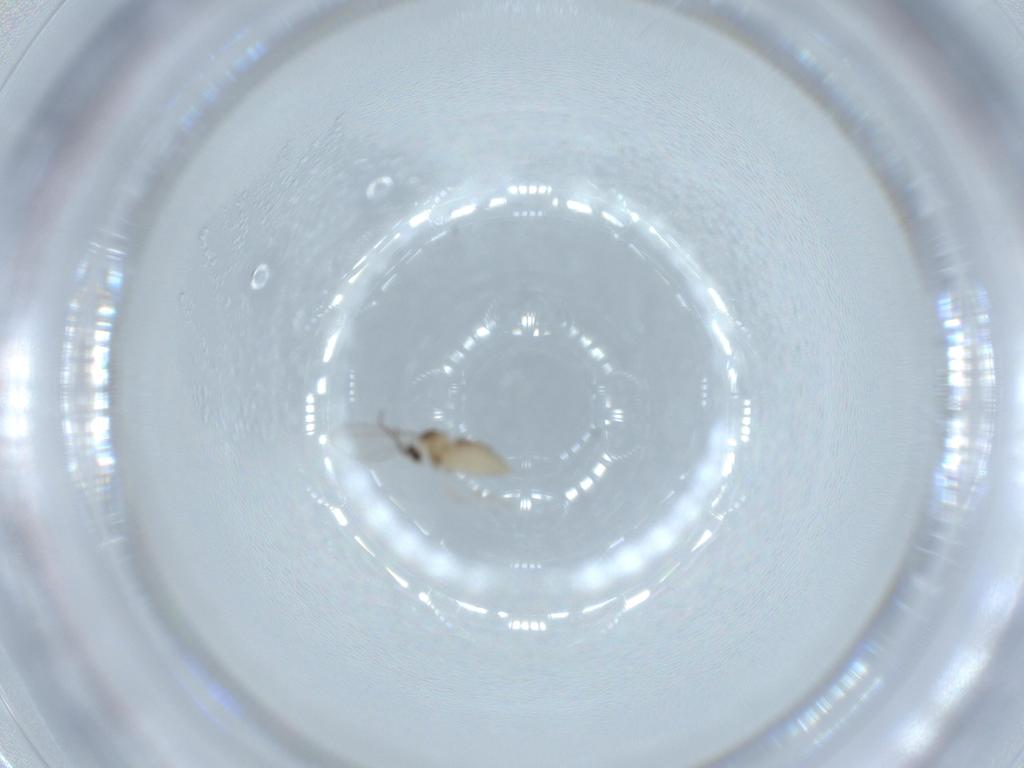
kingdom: Animalia
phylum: Arthropoda
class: Insecta
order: Diptera
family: Cecidomyiidae
